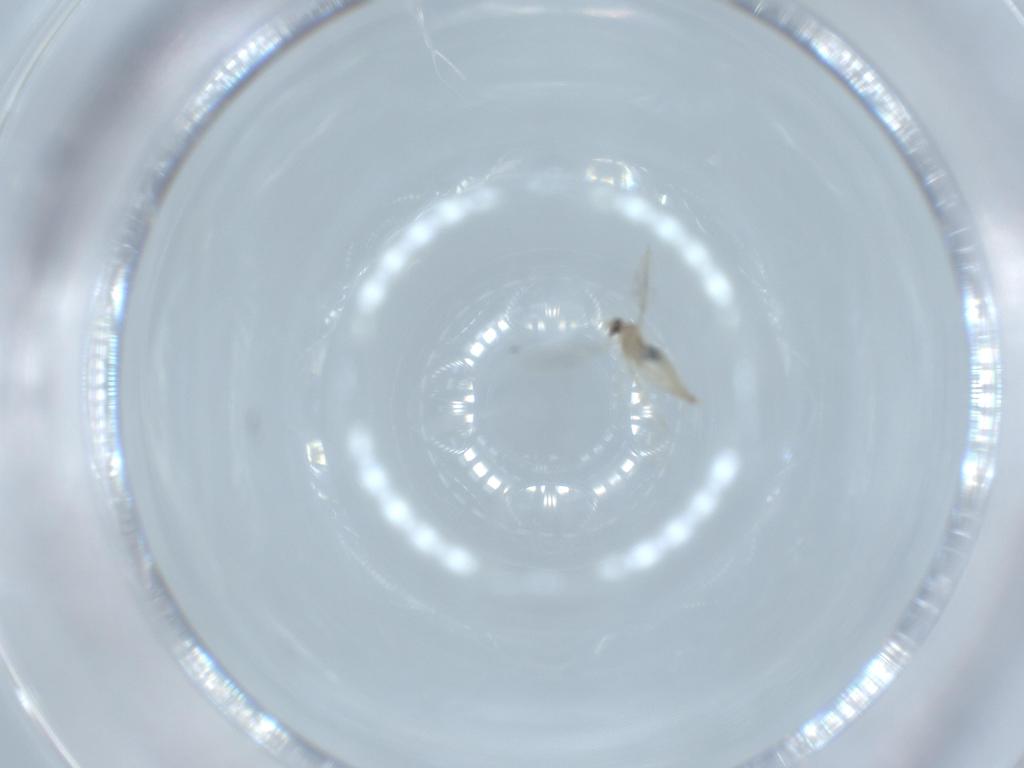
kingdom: Animalia
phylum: Arthropoda
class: Insecta
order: Diptera
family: Cecidomyiidae
